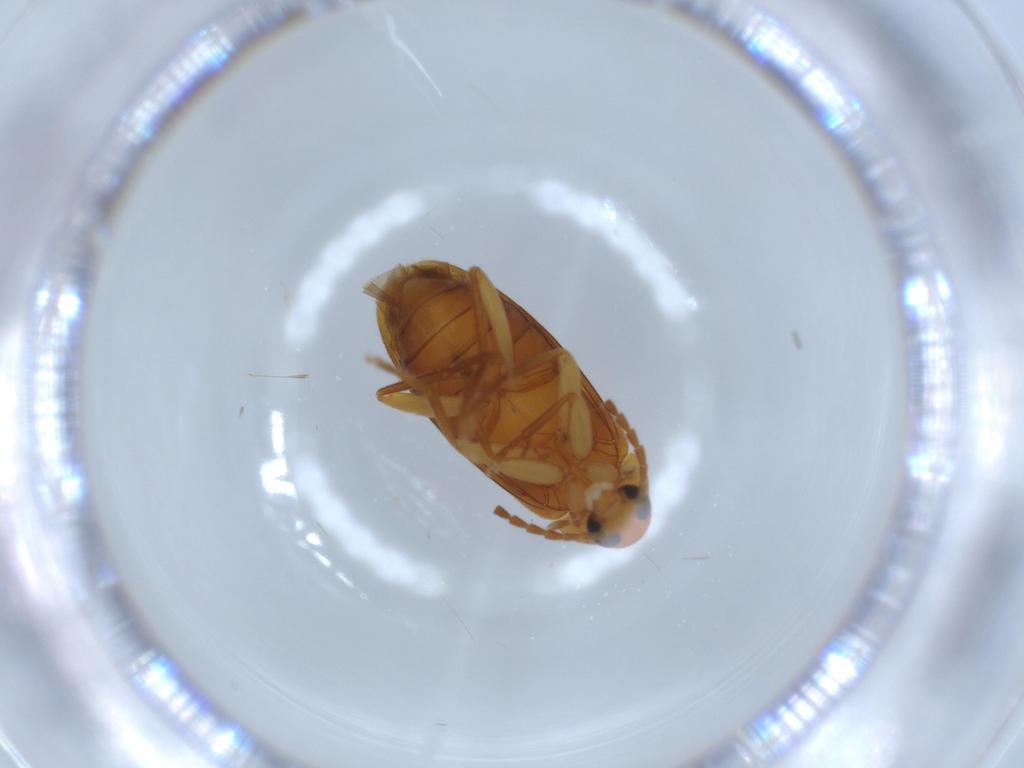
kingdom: Animalia
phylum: Arthropoda
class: Insecta
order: Coleoptera
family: Scraptiidae
